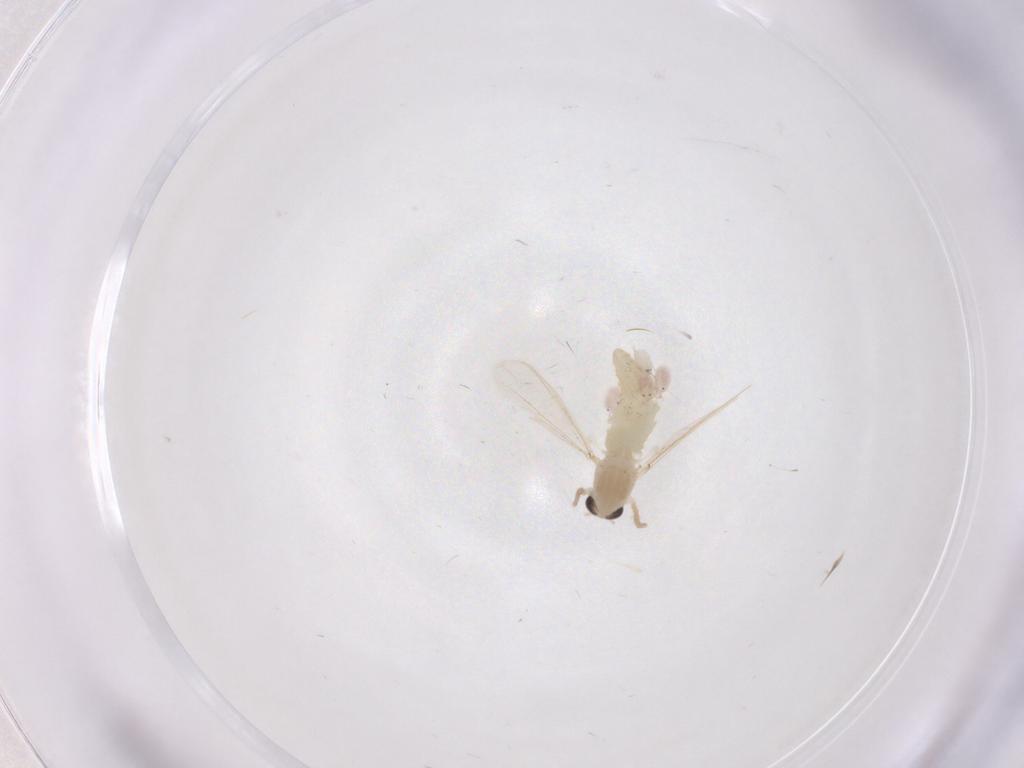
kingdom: Animalia
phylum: Arthropoda
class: Insecta
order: Diptera
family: Chironomidae
